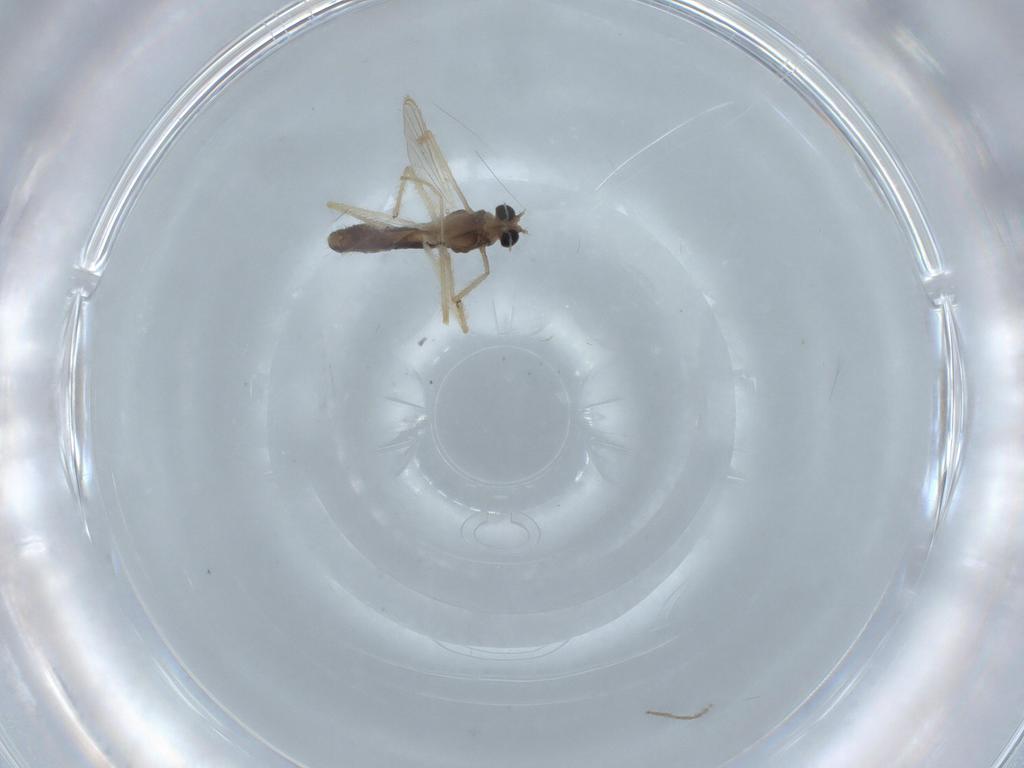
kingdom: Animalia
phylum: Arthropoda
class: Insecta
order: Diptera
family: Chironomidae
